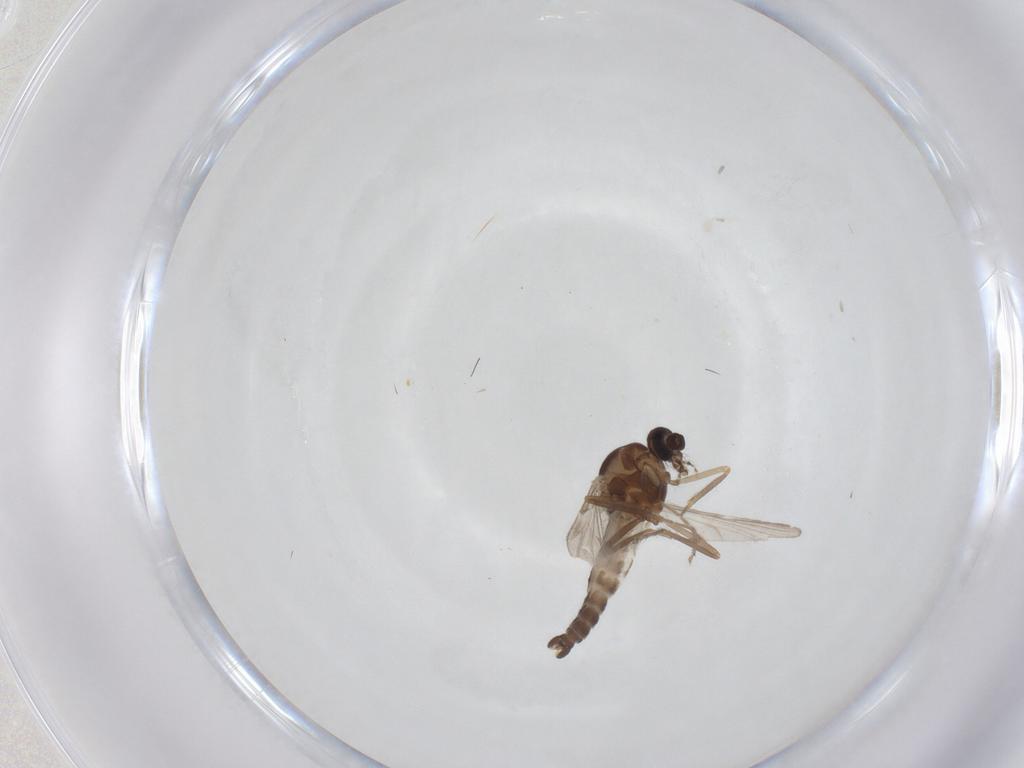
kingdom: Animalia
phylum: Arthropoda
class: Insecta
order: Diptera
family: Ceratopogonidae
